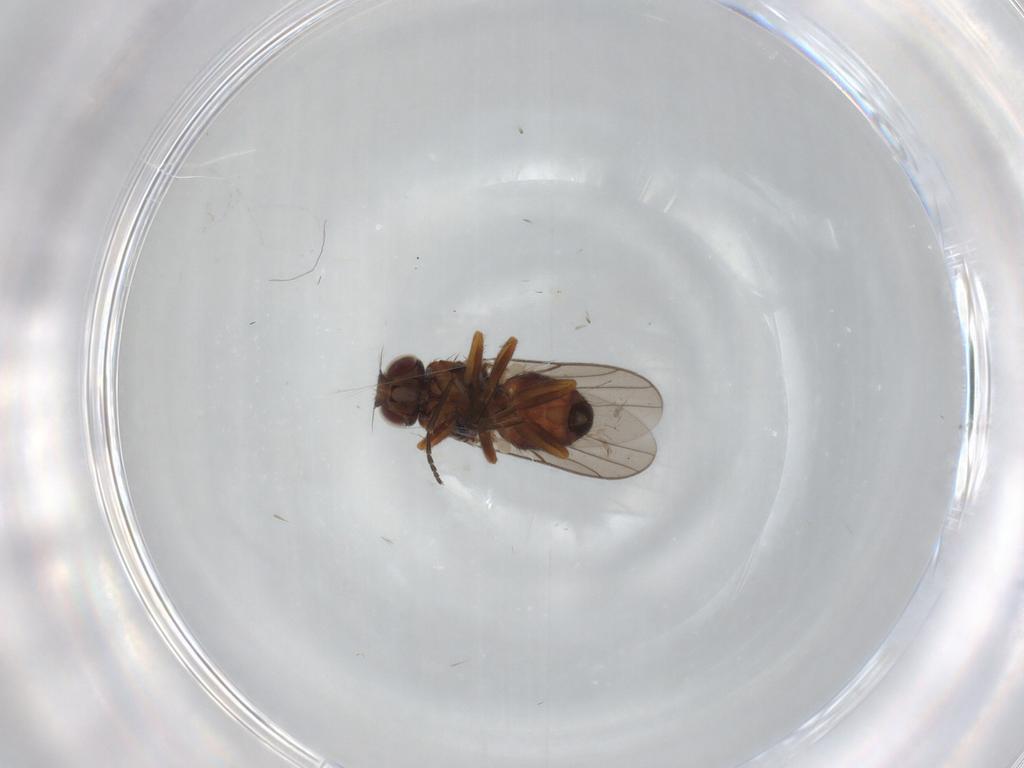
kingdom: Animalia
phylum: Arthropoda
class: Insecta
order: Diptera
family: Chloropidae
